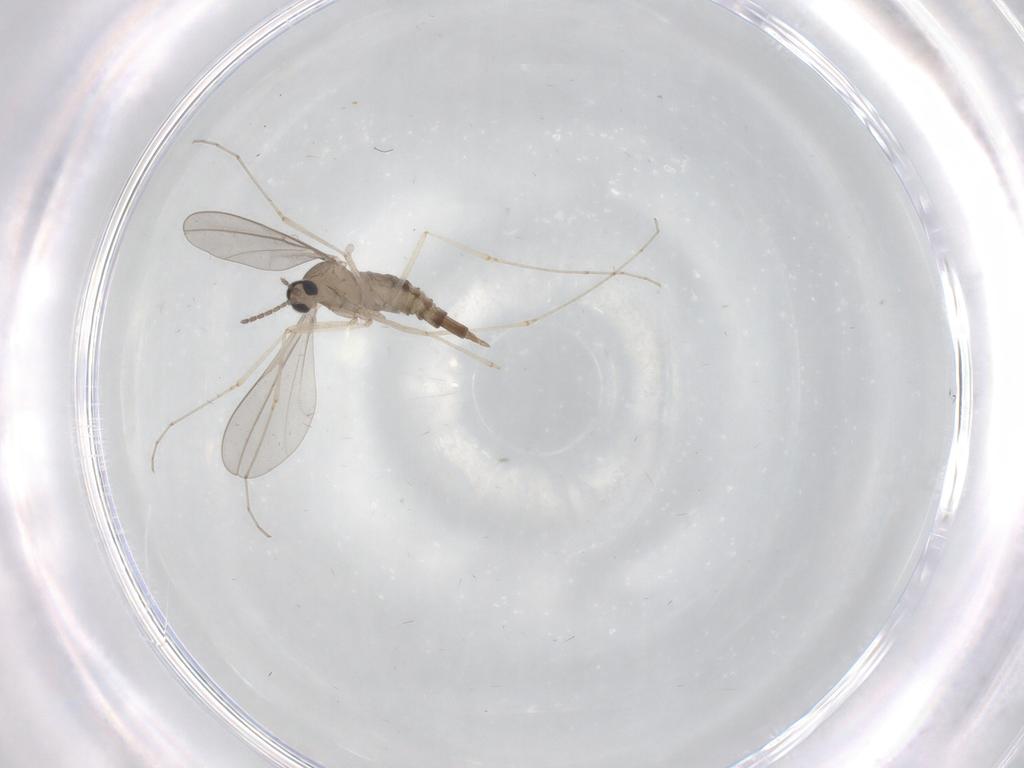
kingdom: Animalia
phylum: Arthropoda
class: Insecta
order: Diptera
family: Cecidomyiidae
